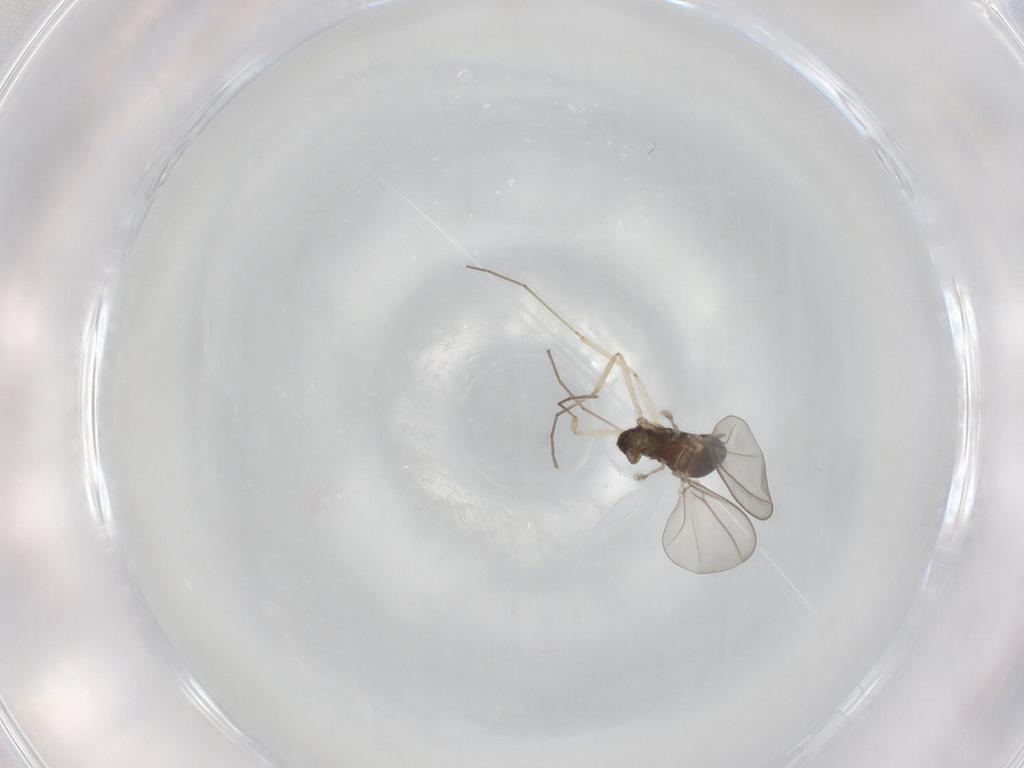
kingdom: Animalia
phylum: Arthropoda
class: Insecta
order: Diptera
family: Cecidomyiidae
